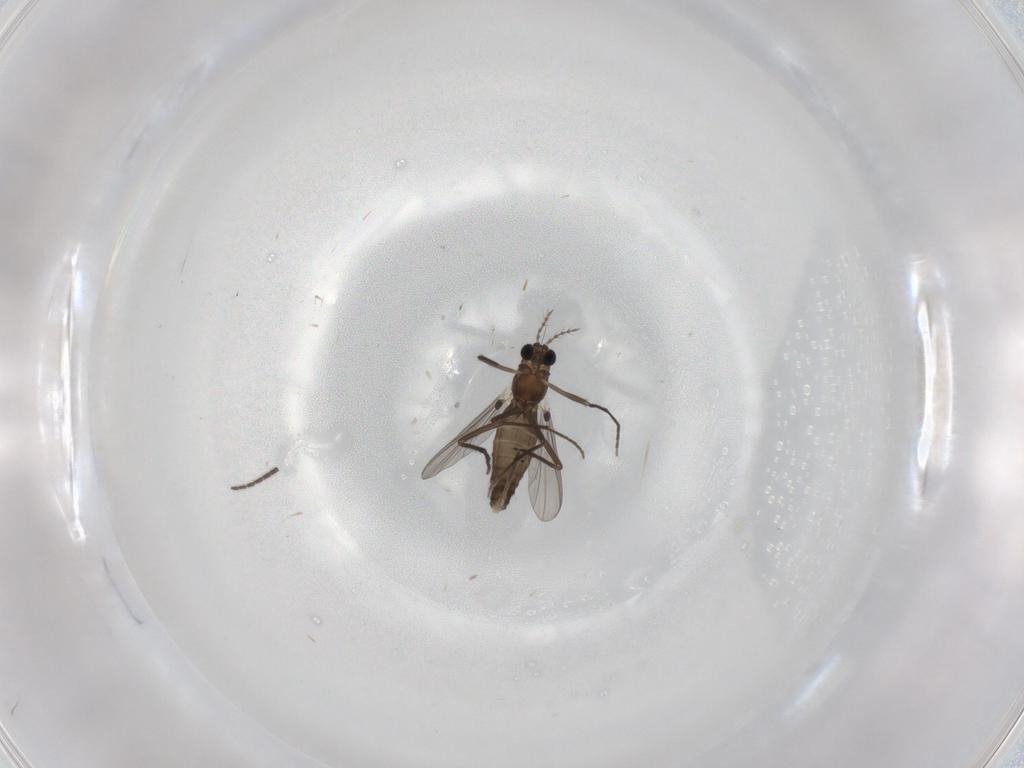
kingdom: Animalia
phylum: Arthropoda
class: Insecta
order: Diptera
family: Chironomidae
